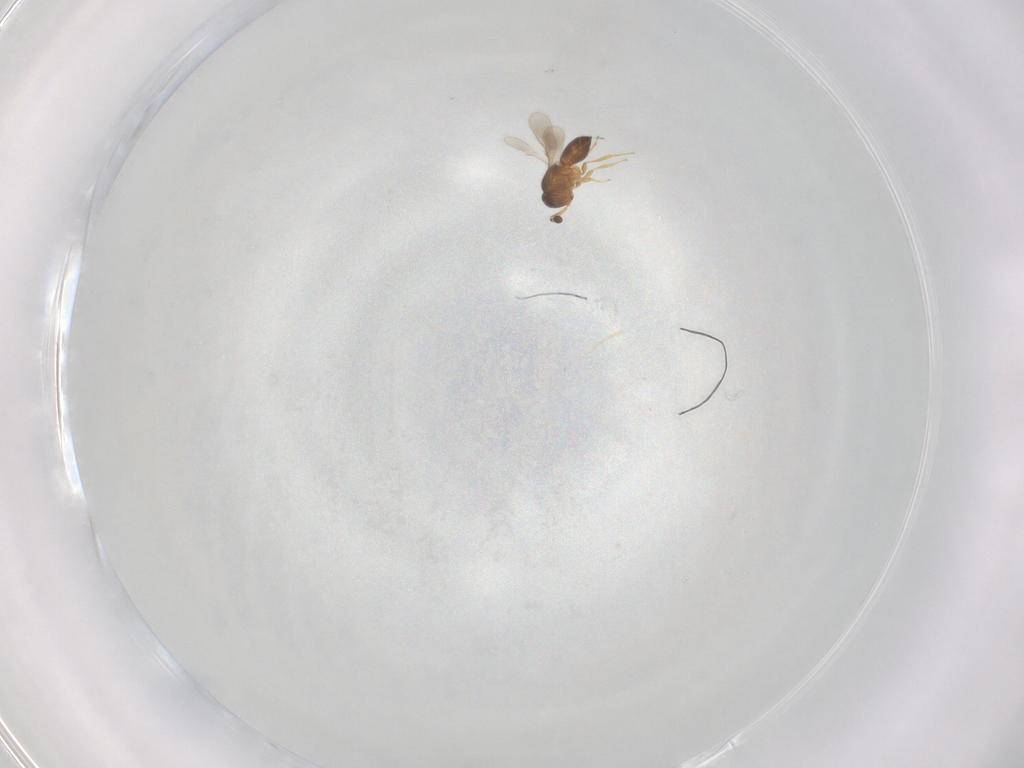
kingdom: Animalia
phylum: Arthropoda
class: Insecta
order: Hymenoptera
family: Scelionidae
